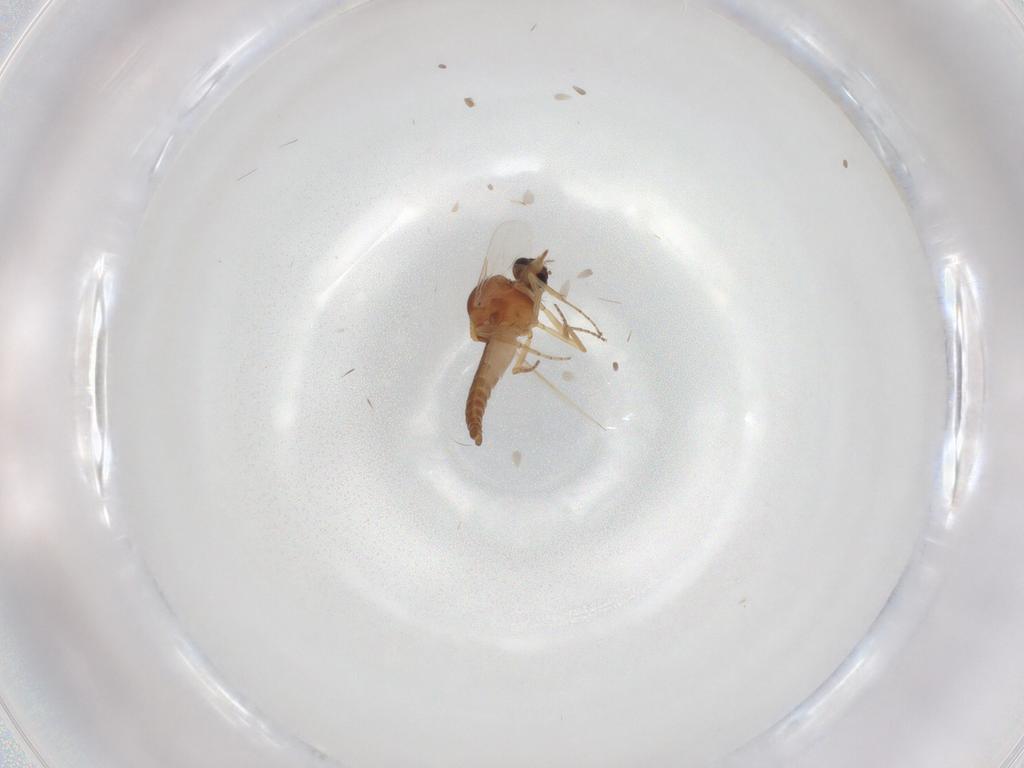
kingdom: Animalia
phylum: Arthropoda
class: Insecta
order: Diptera
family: Ceratopogonidae
